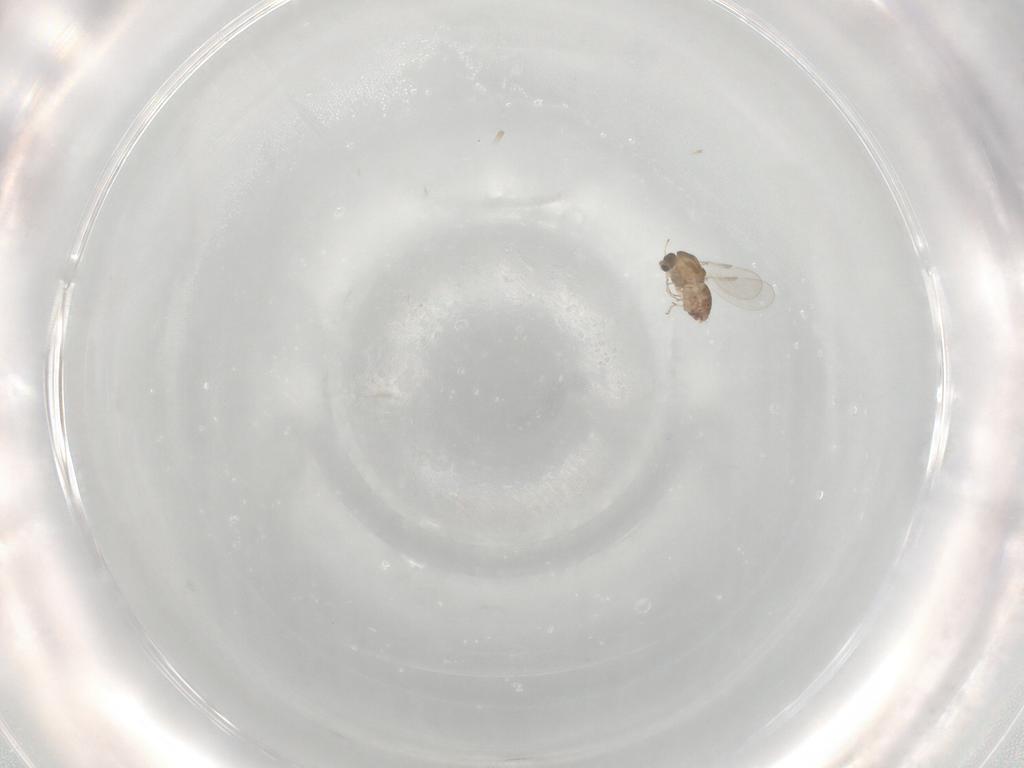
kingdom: Animalia
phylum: Arthropoda
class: Insecta
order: Diptera
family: Chironomidae
